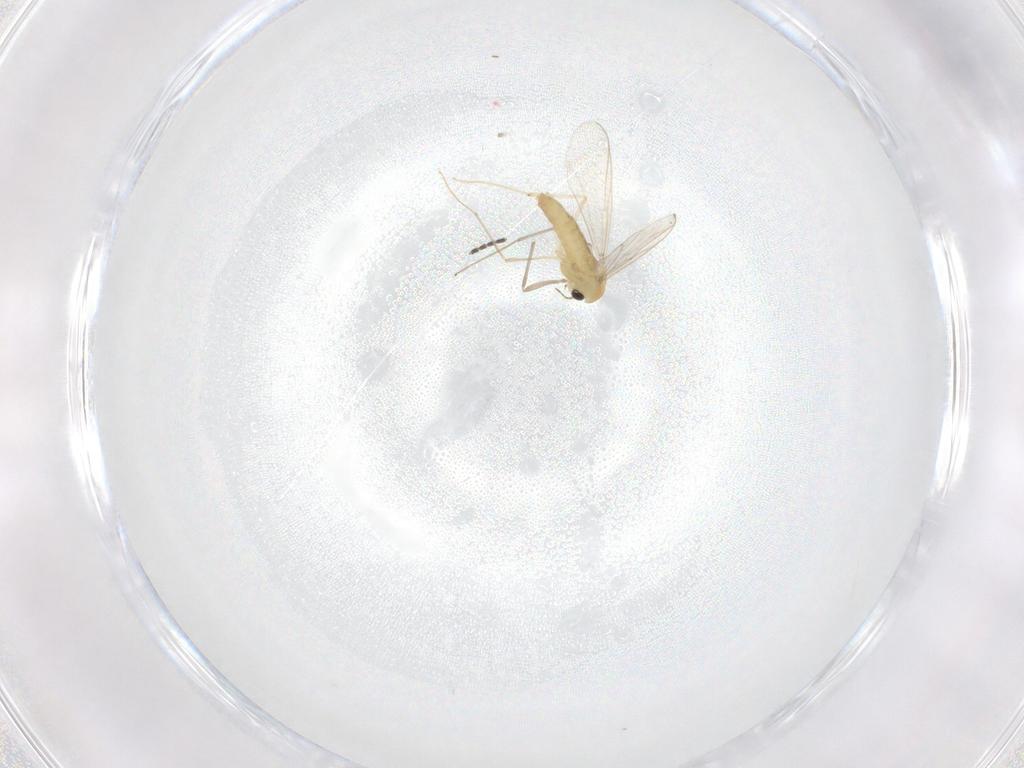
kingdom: Animalia
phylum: Arthropoda
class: Insecta
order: Diptera
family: Chironomidae
